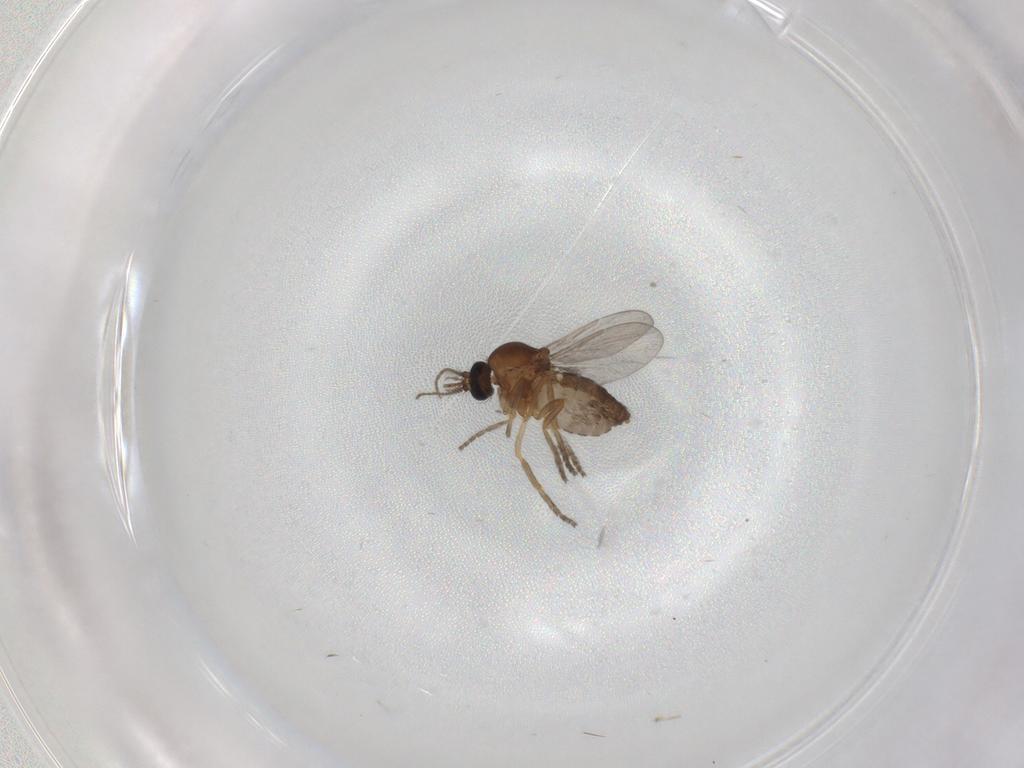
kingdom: Animalia
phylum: Arthropoda
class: Insecta
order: Diptera
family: Ceratopogonidae
